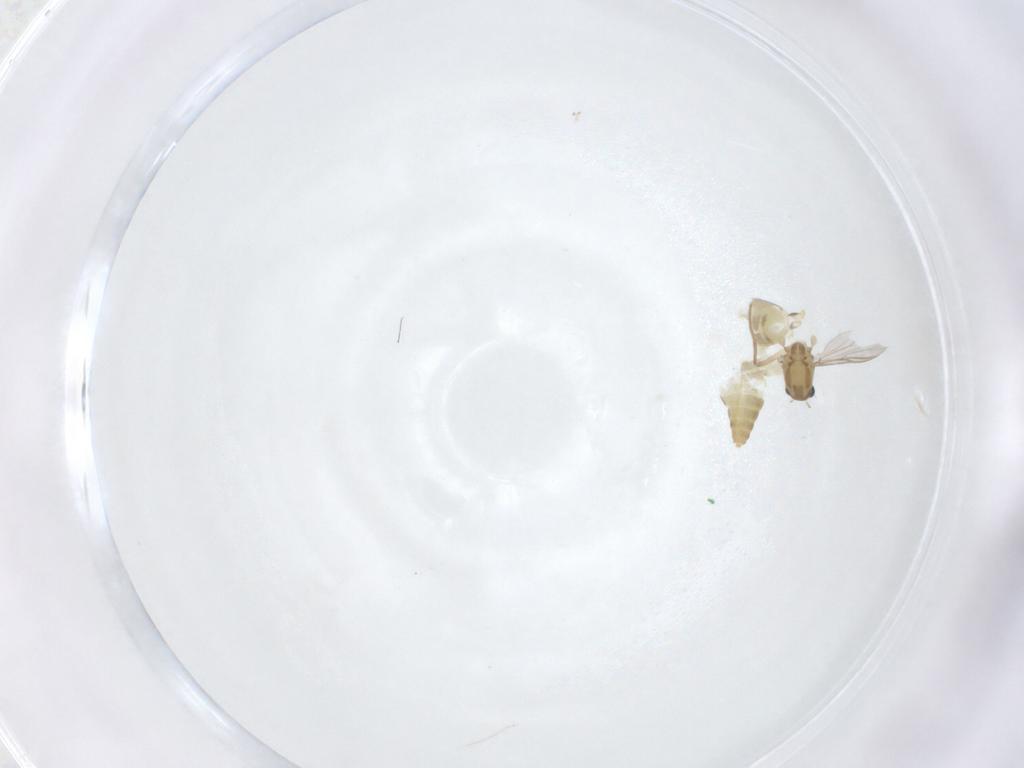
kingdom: Animalia
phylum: Arthropoda
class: Insecta
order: Diptera
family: Chironomidae
